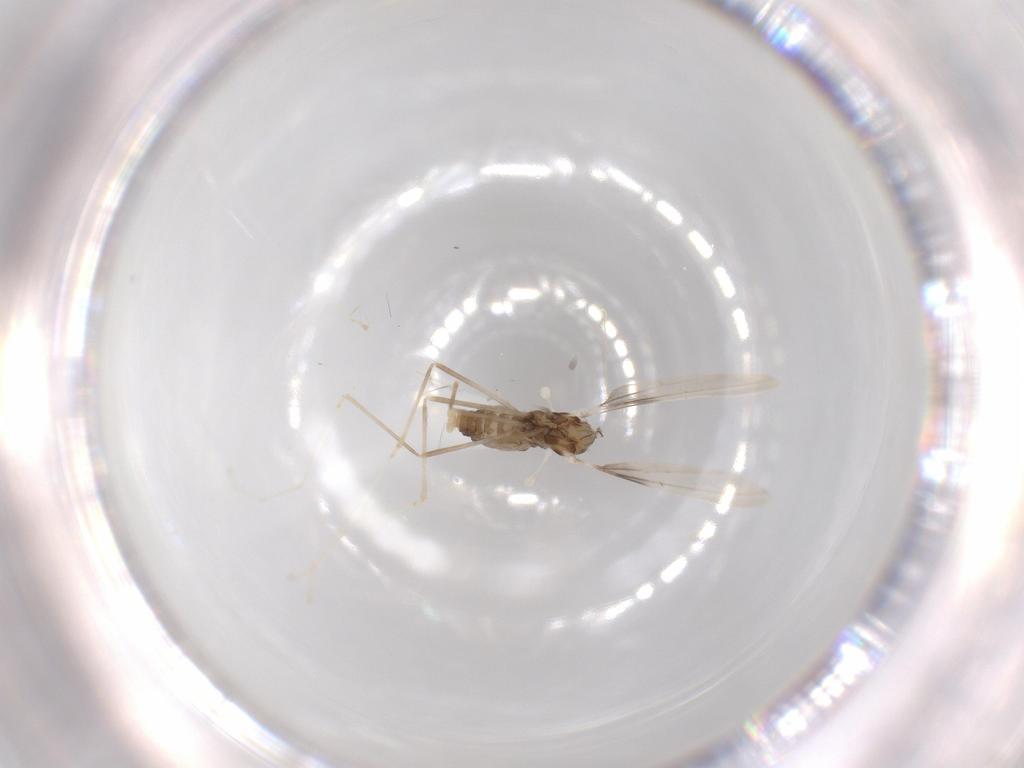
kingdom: Animalia
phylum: Arthropoda
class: Insecta
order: Diptera
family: Cecidomyiidae
